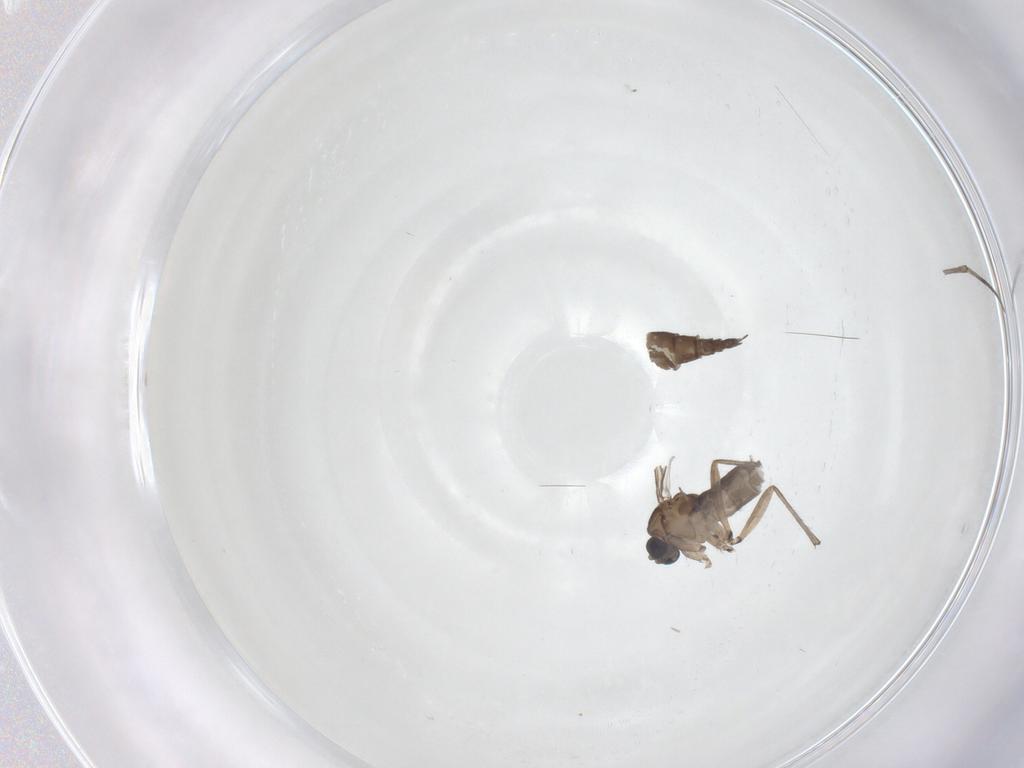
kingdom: Animalia
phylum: Arthropoda
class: Insecta
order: Diptera
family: Sciaridae
